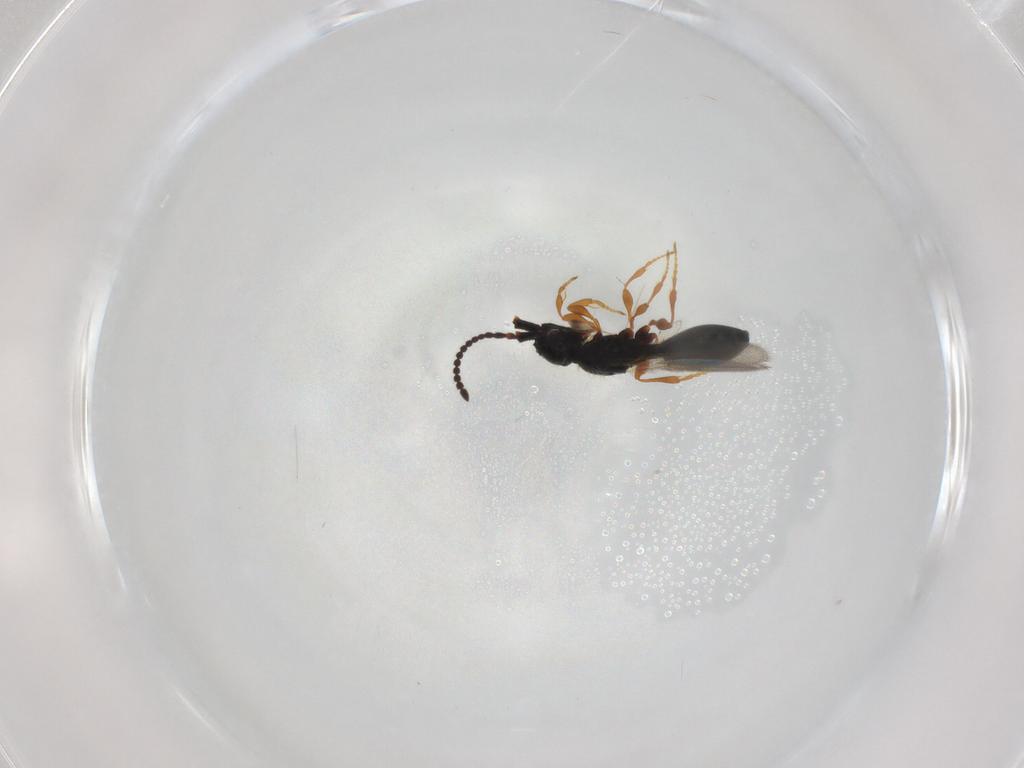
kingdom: Animalia
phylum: Arthropoda
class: Insecta
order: Hymenoptera
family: Diapriidae
